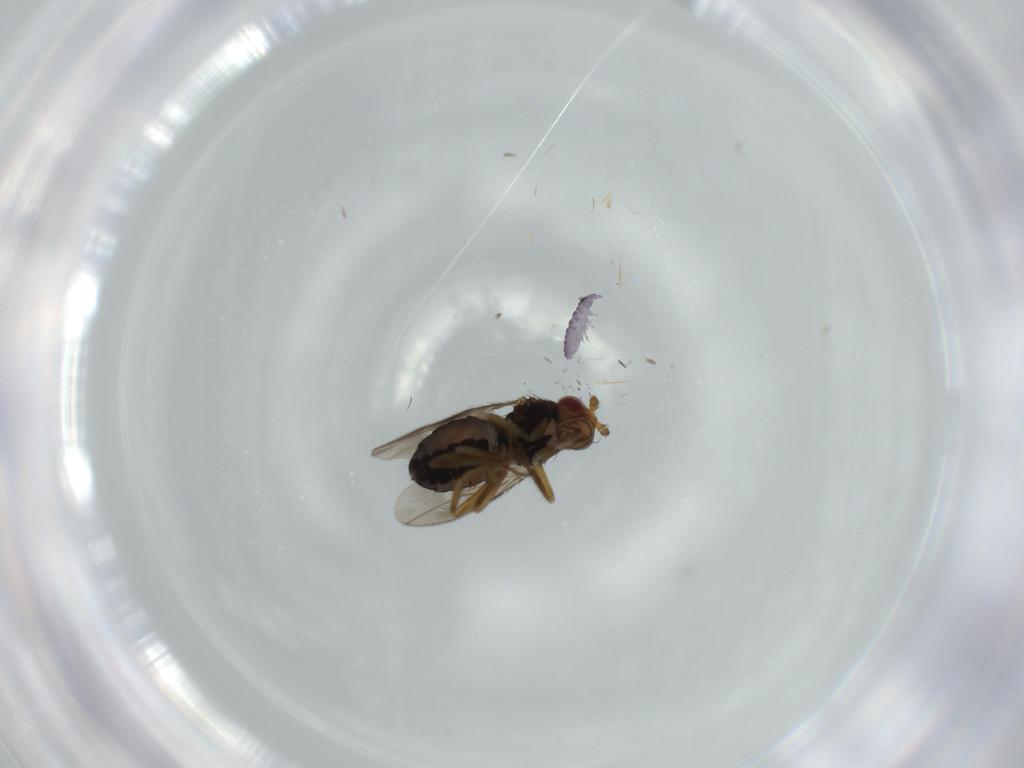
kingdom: Animalia
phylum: Arthropoda
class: Insecta
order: Diptera
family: Sphaeroceridae
